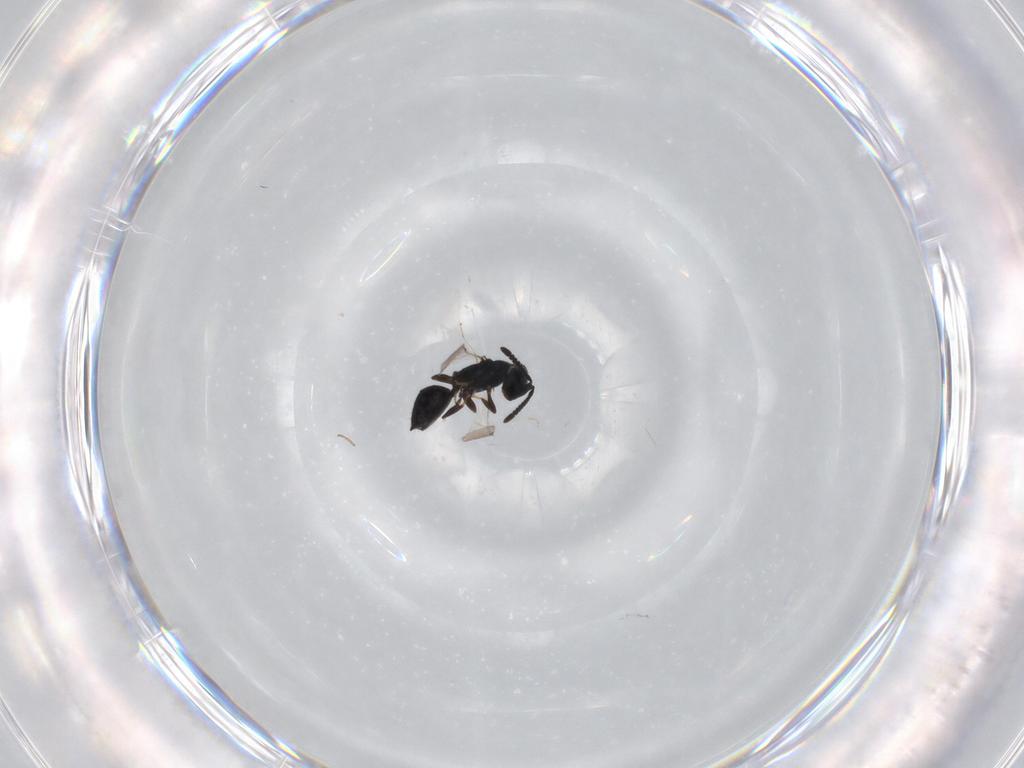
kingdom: Animalia
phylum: Arthropoda
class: Insecta
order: Hymenoptera
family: Spalangiidae
